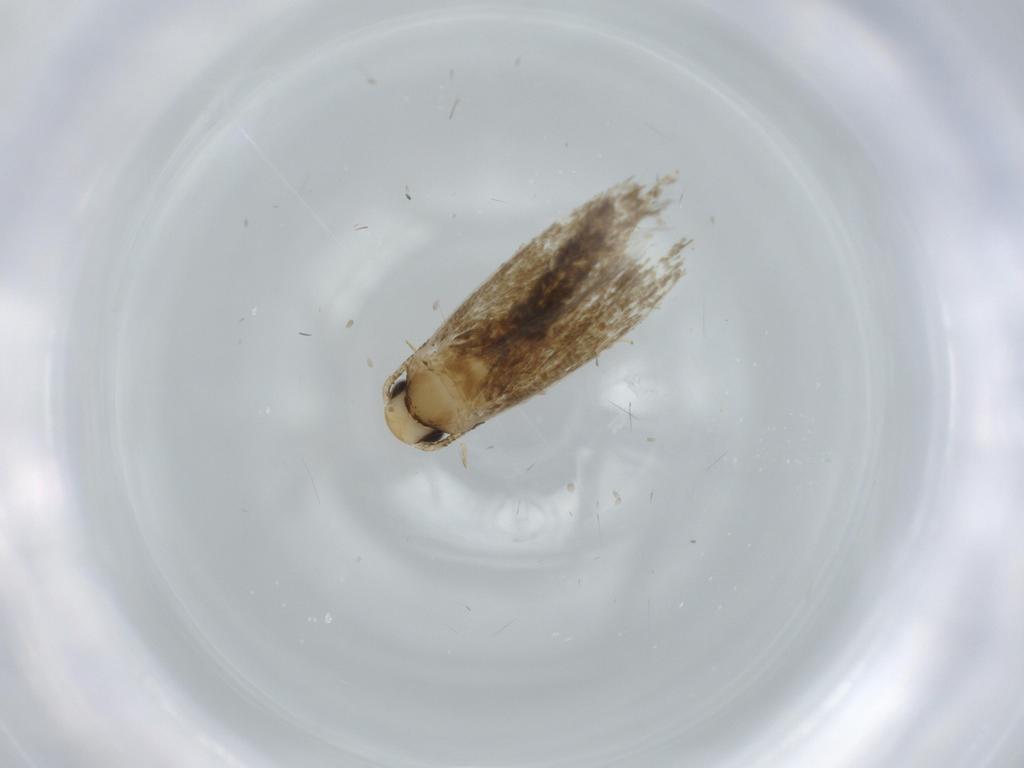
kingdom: Animalia
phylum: Arthropoda
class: Insecta
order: Lepidoptera
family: Tineidae
